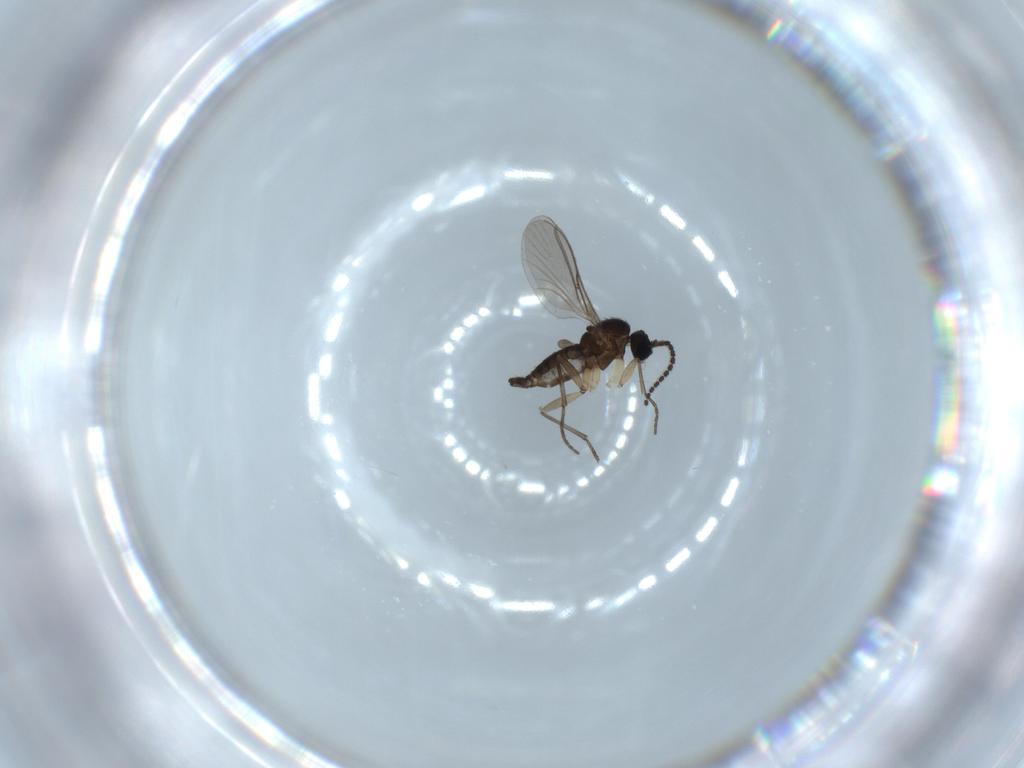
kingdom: Animalia
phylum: Arthropoda
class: Insecta
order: Diptera
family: Sciaridae
